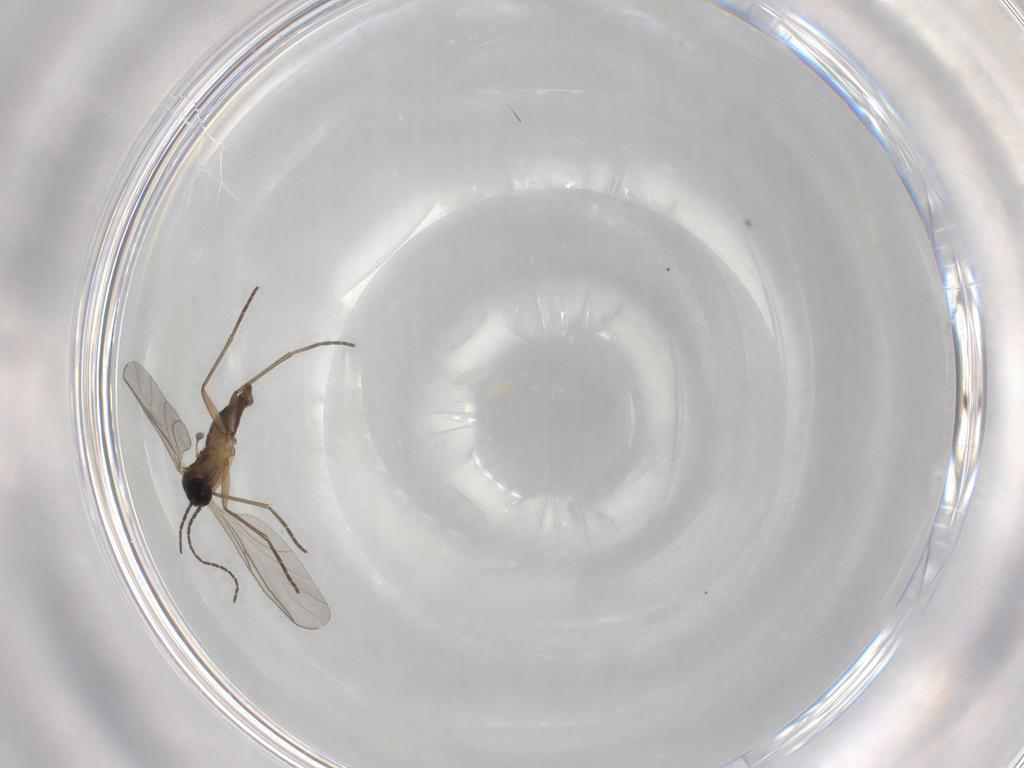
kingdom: Animalia
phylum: Arthropoda
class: Insecta
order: Diptera
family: Sciaridae
